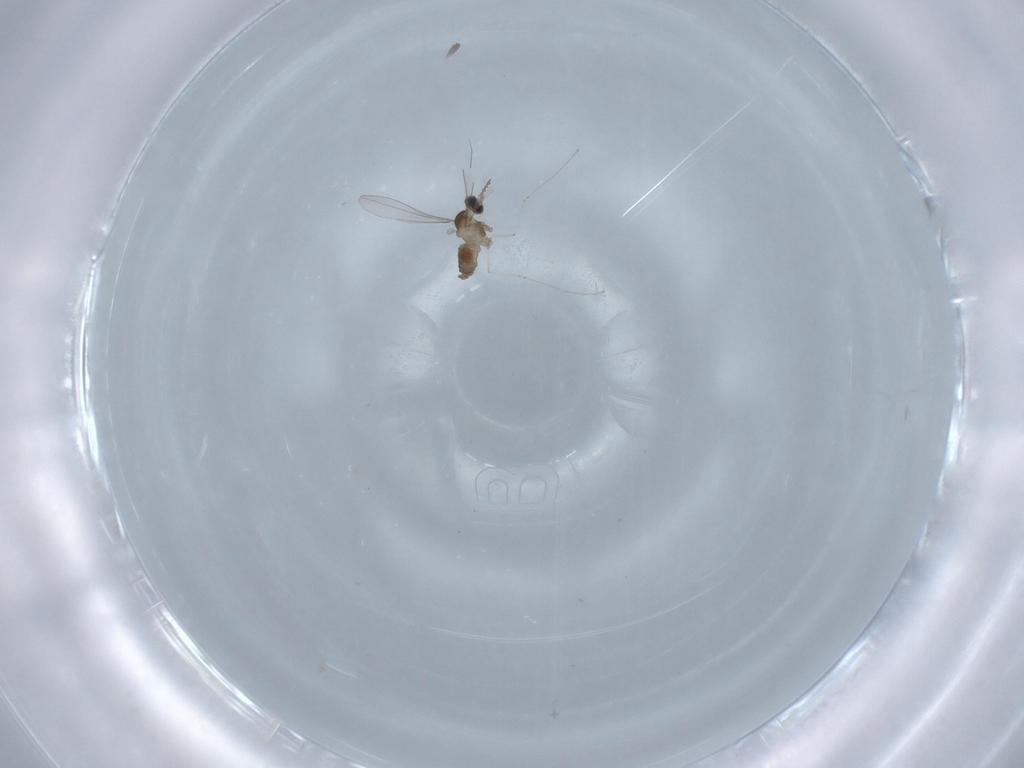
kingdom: Animalia
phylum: Arthropoda
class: Insecta
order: Diptera
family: Cecidomyiidae
